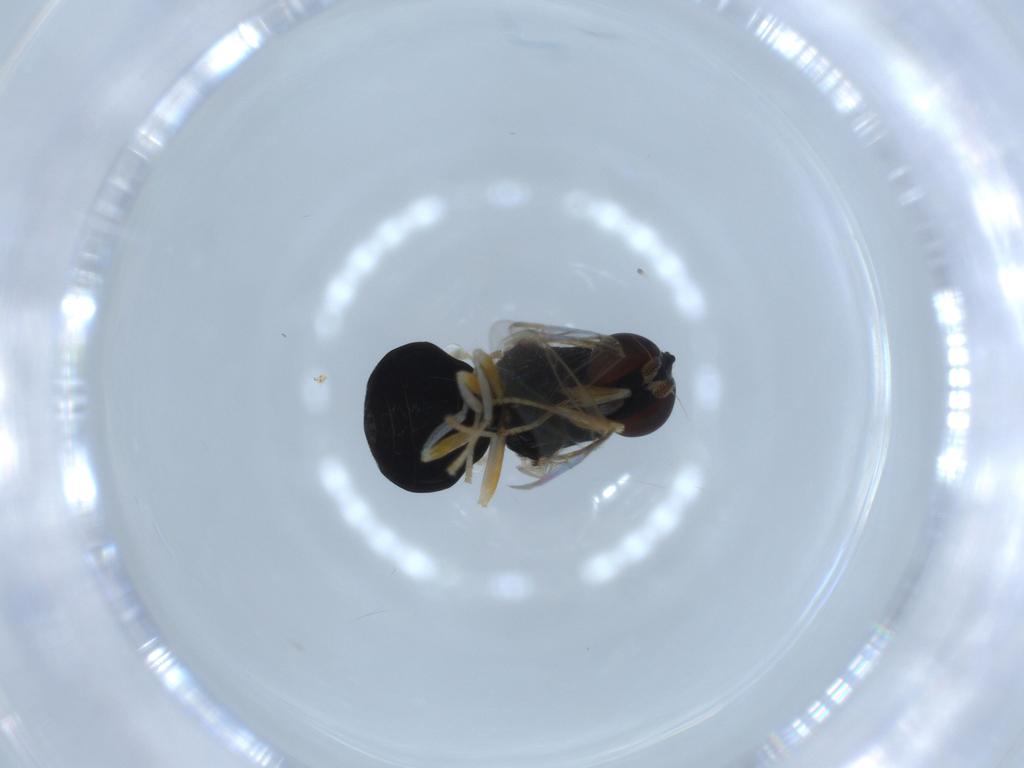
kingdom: Animalia
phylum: Arthropoda
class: Insecta
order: Diptera
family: Stratiomyidae
